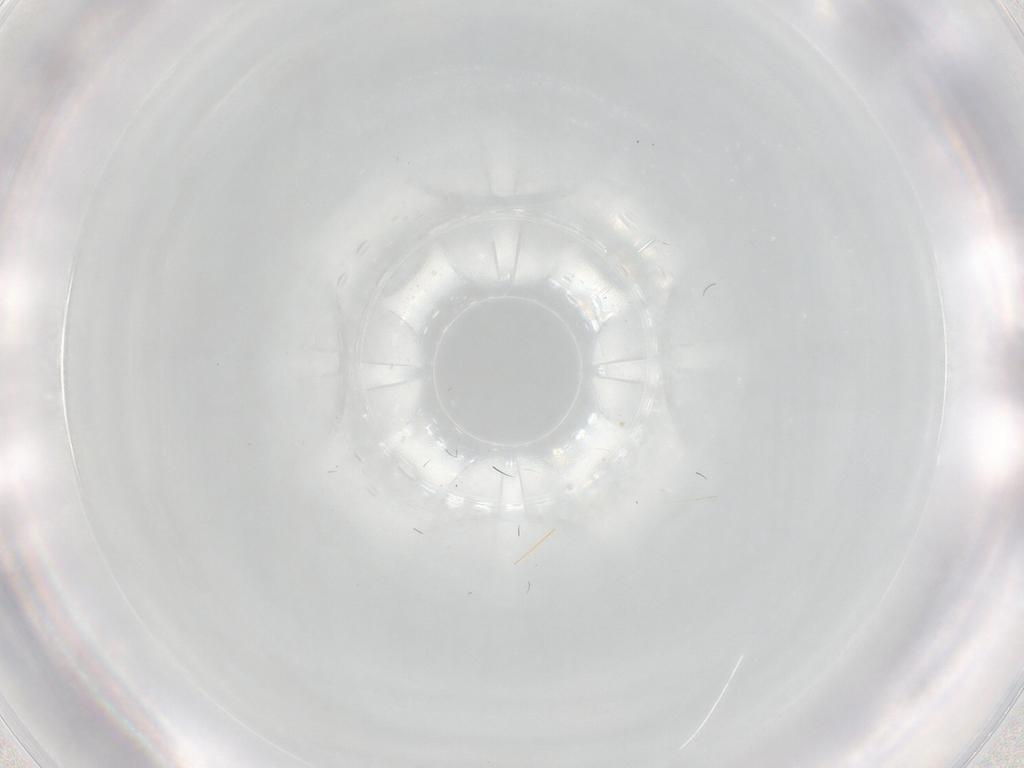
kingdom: Animalia
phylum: Arthropoda
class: Insecta
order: Diptera
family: Cecidomyiidae
